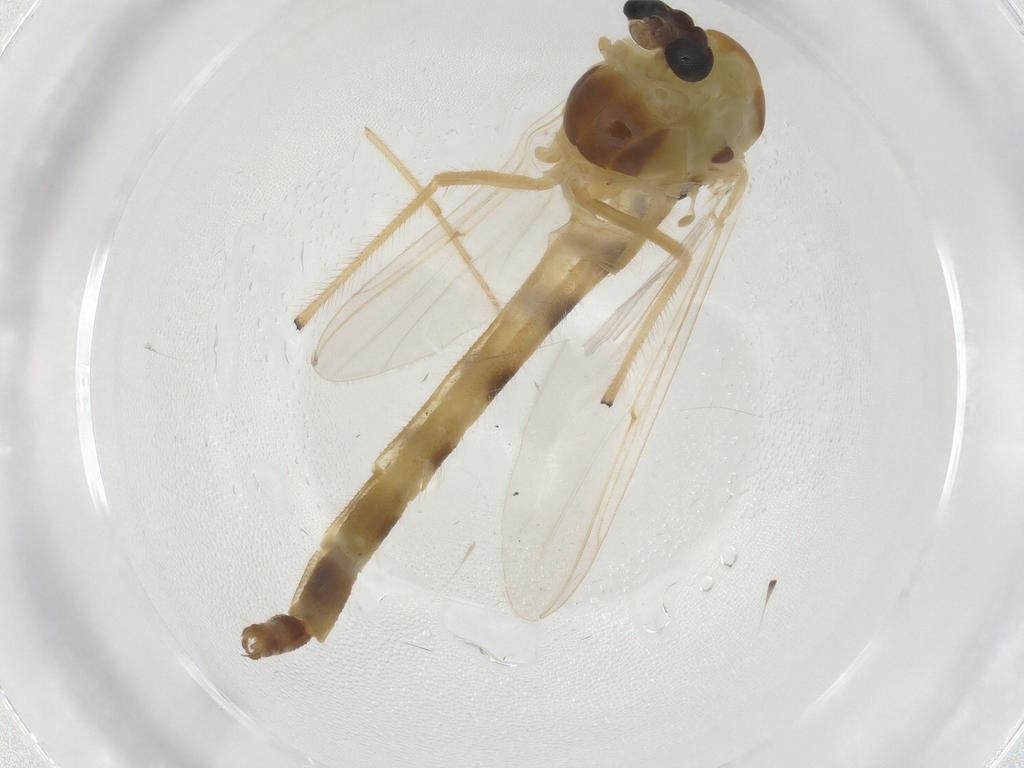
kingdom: Animalia
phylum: Arthropoda
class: Insecta
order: Diptera
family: Chironomidae
